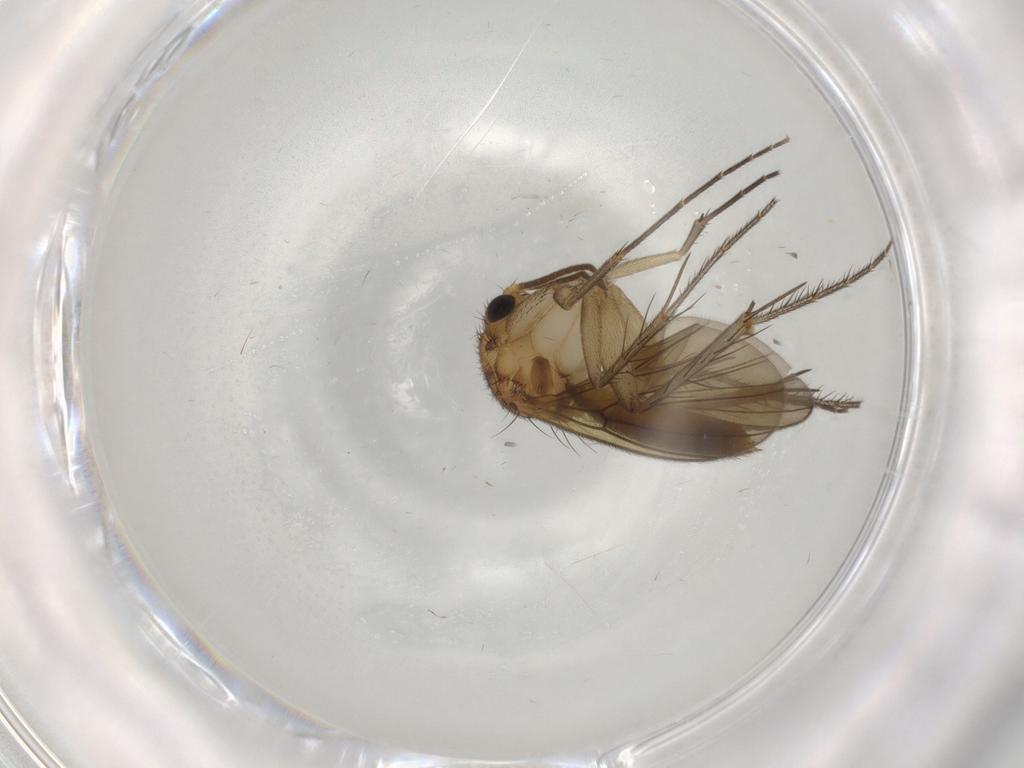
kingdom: Animalia
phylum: Arthropoda
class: Insecta
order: Diptera
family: Mycetophilidae
